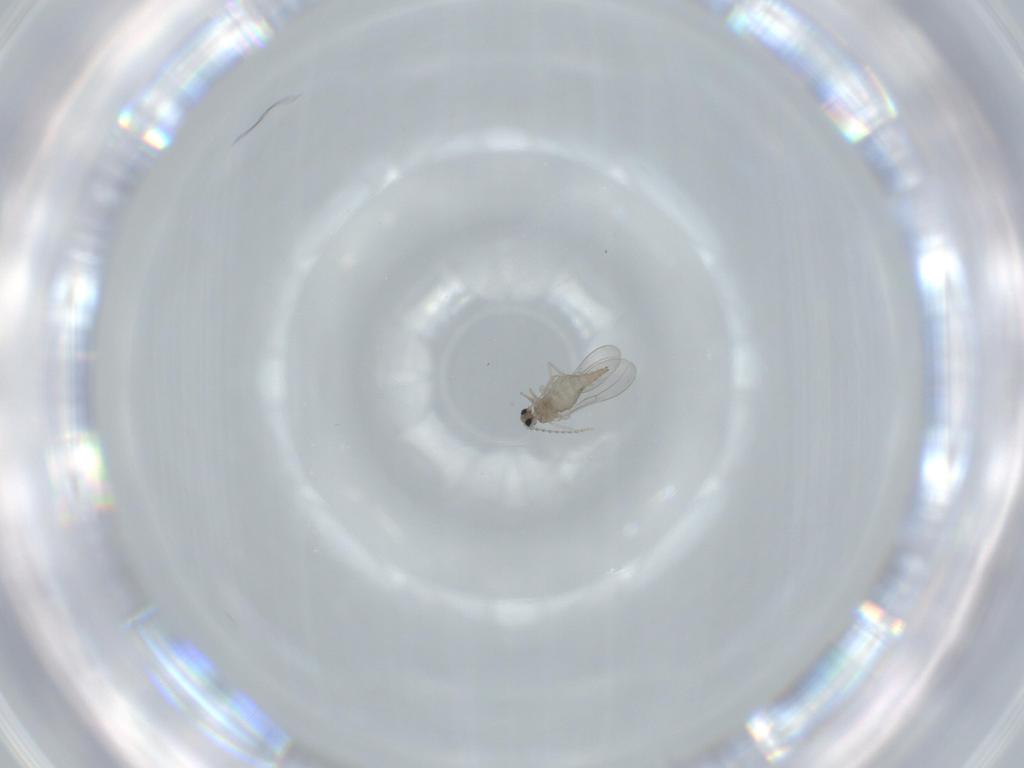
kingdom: Animalia
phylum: Arthropoda
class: Insecta
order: Diptera
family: Cecidomyiidae
